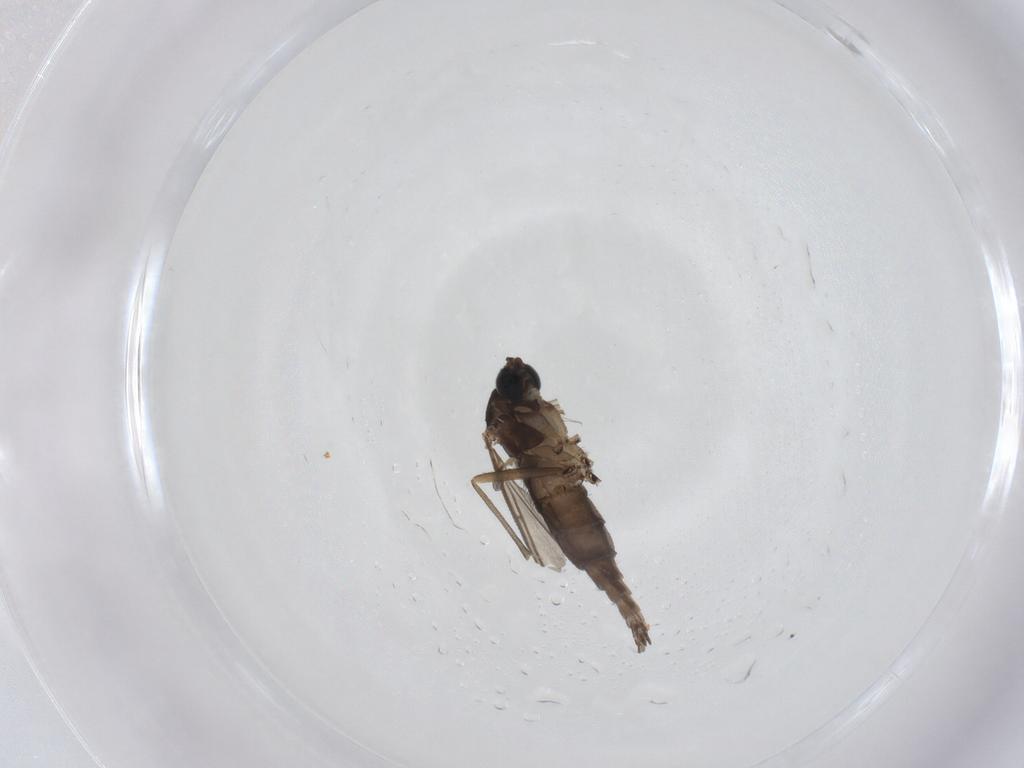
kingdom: Animalia
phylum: Arthropoda
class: Insecta
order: Diptera
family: Sciaridae
